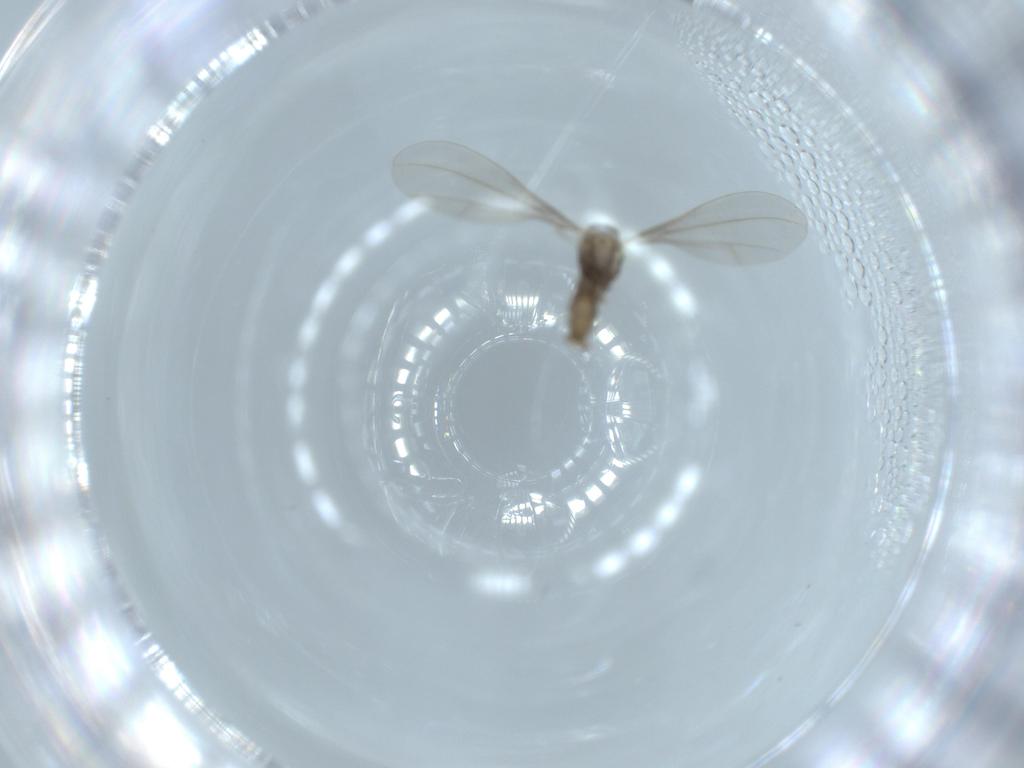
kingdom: Animalia
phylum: Arthropoda
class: Insecta
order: Diptera
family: Cecidomyiidae
